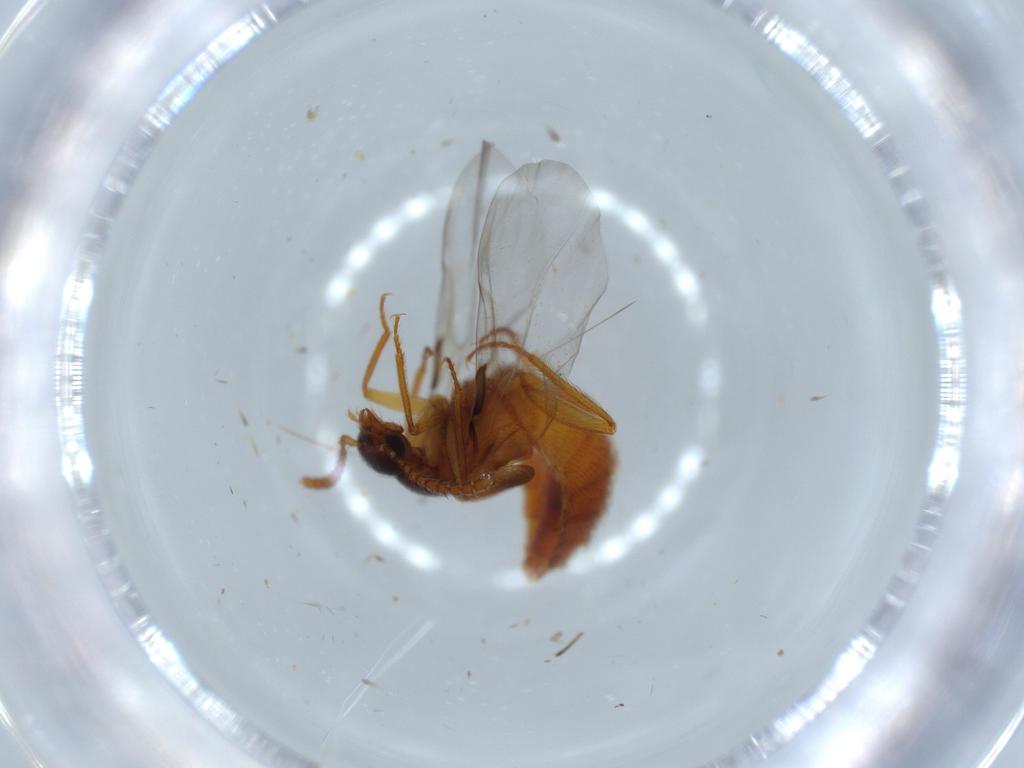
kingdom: Animalia
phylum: Arthropoda
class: Insecta
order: Coleoptera
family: Staphylinidae
